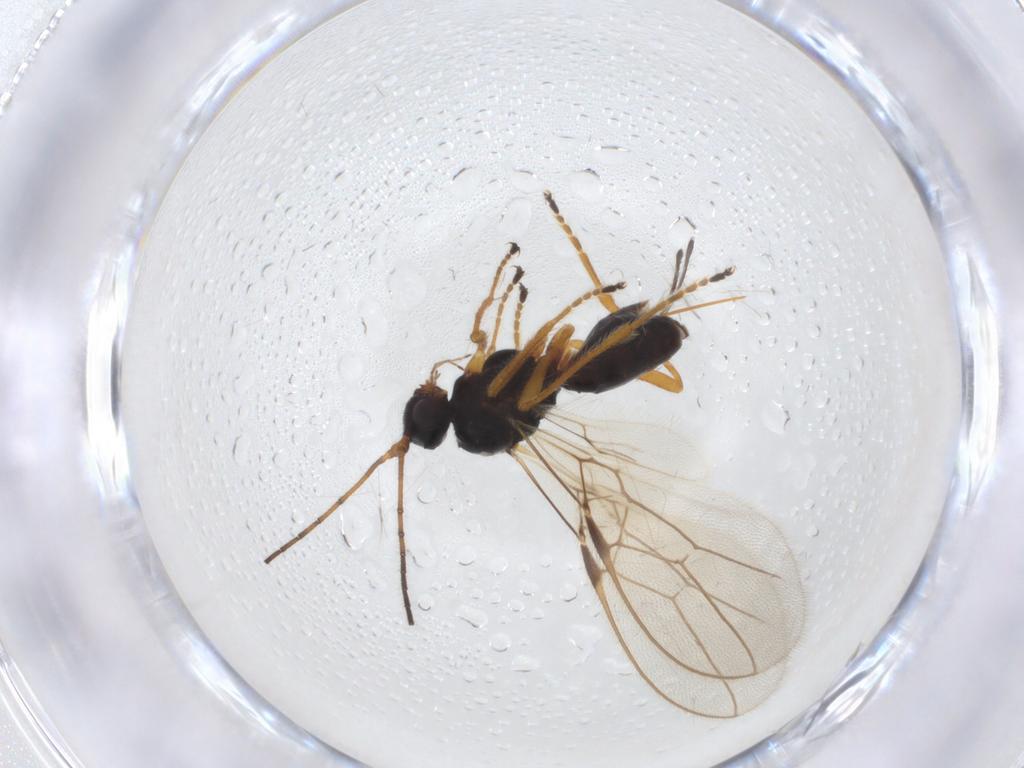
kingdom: Animalia
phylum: Arthropoda
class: Insecta
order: Hymenoptera
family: Braconidae
